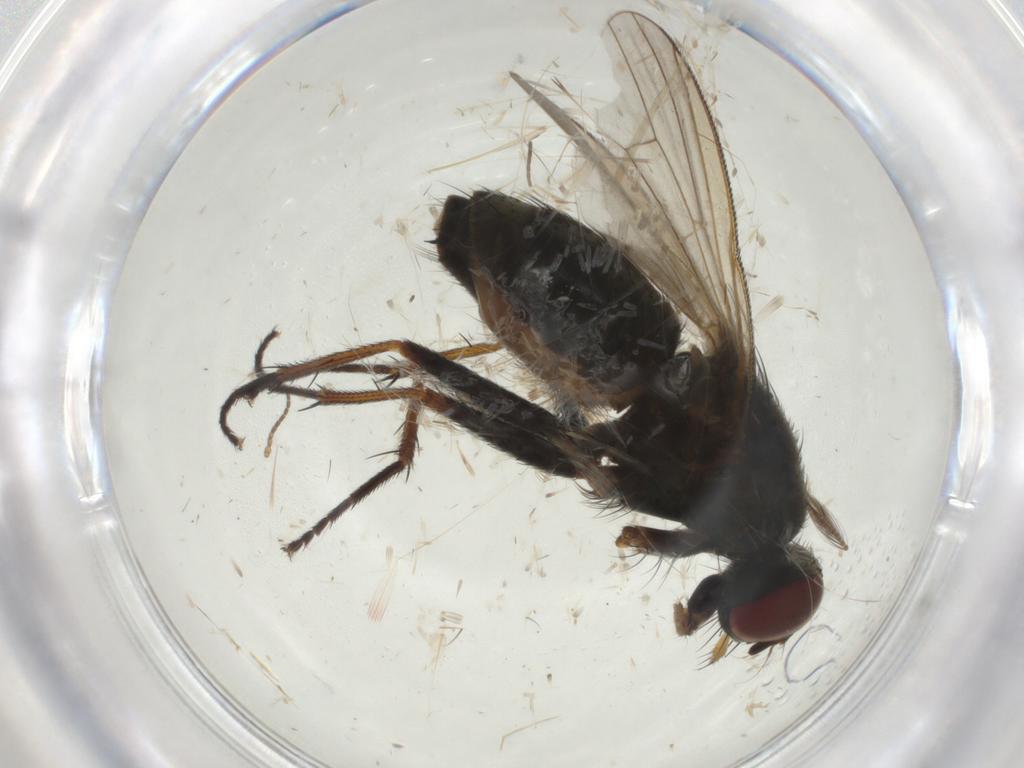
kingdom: Animalia
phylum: Arthropoda
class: Insecta
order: Diptera
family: Muscidae
